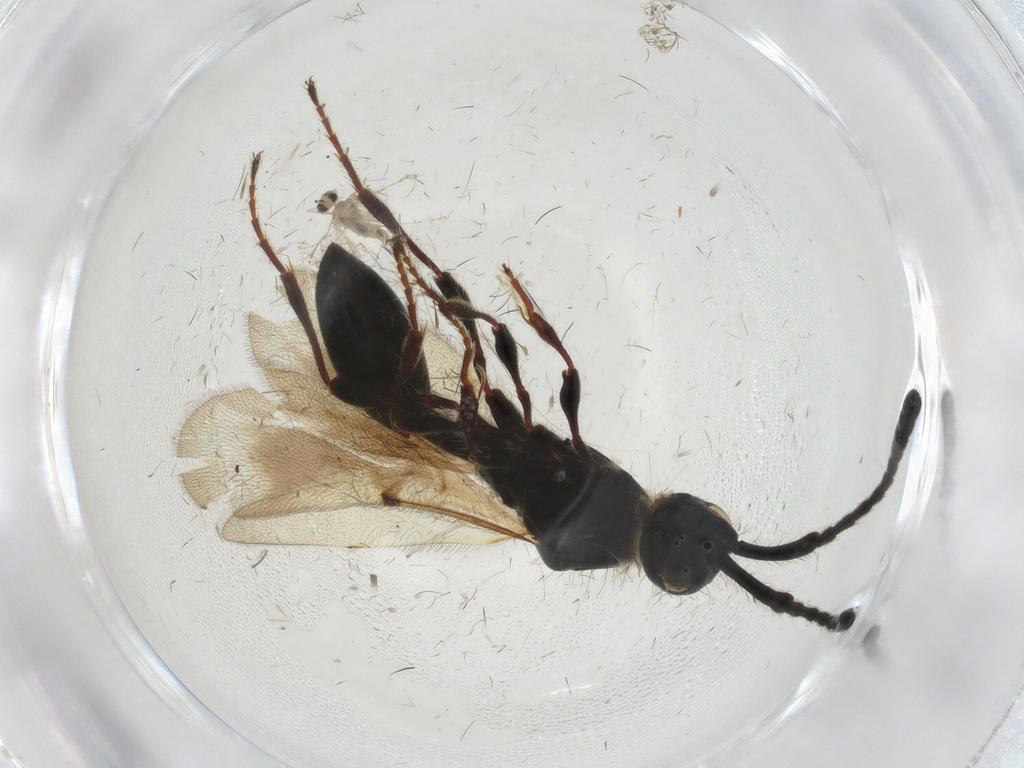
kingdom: Animalia
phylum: Arthropoda
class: Insecta
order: Diptera
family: Cecidomyiidae
